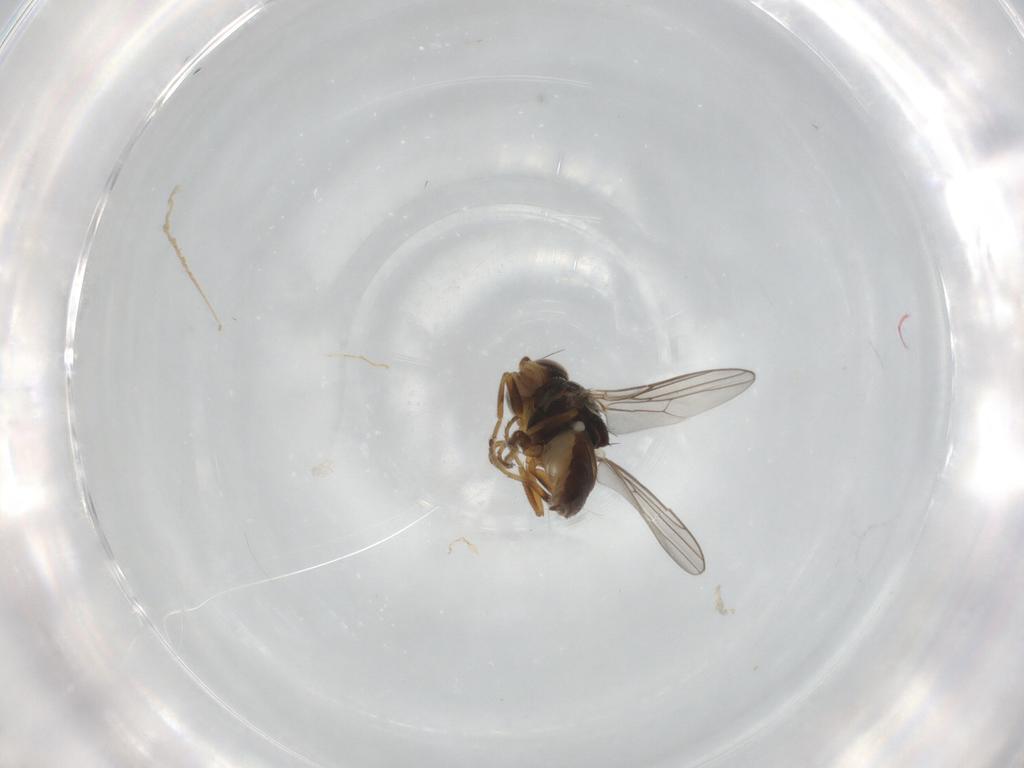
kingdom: Animalia
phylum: Arthropoda
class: Insecta
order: Diptera
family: Chloropidae
